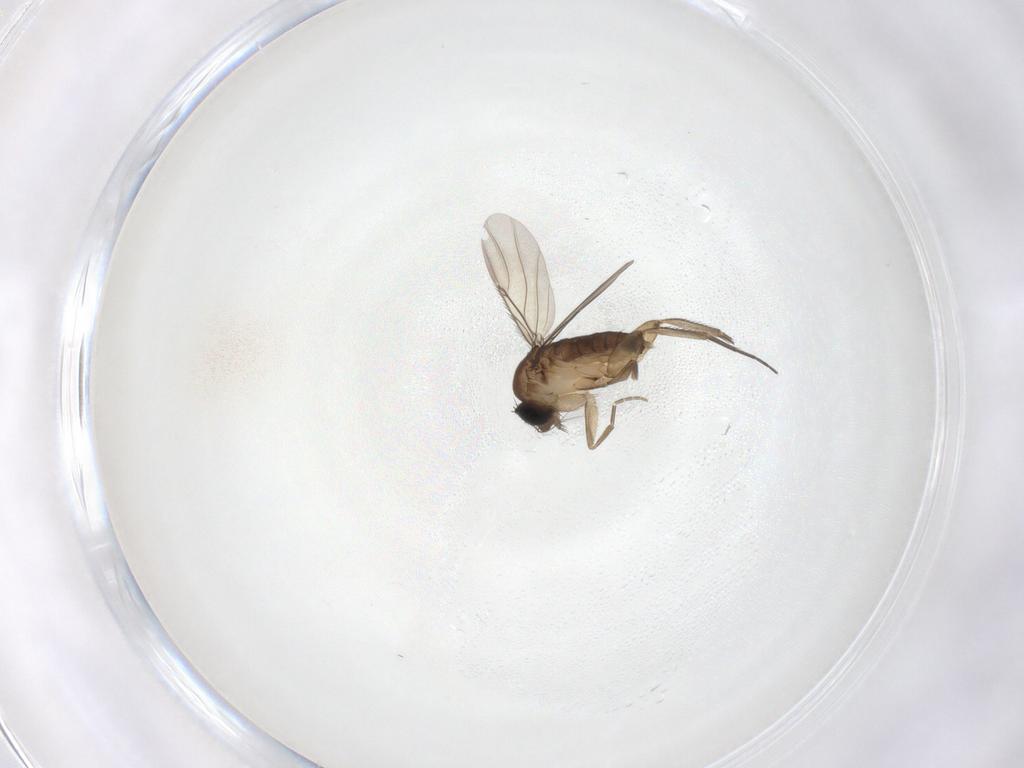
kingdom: Animalia
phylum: Arthropoda
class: Insecta
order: Diptera
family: Phoridae
